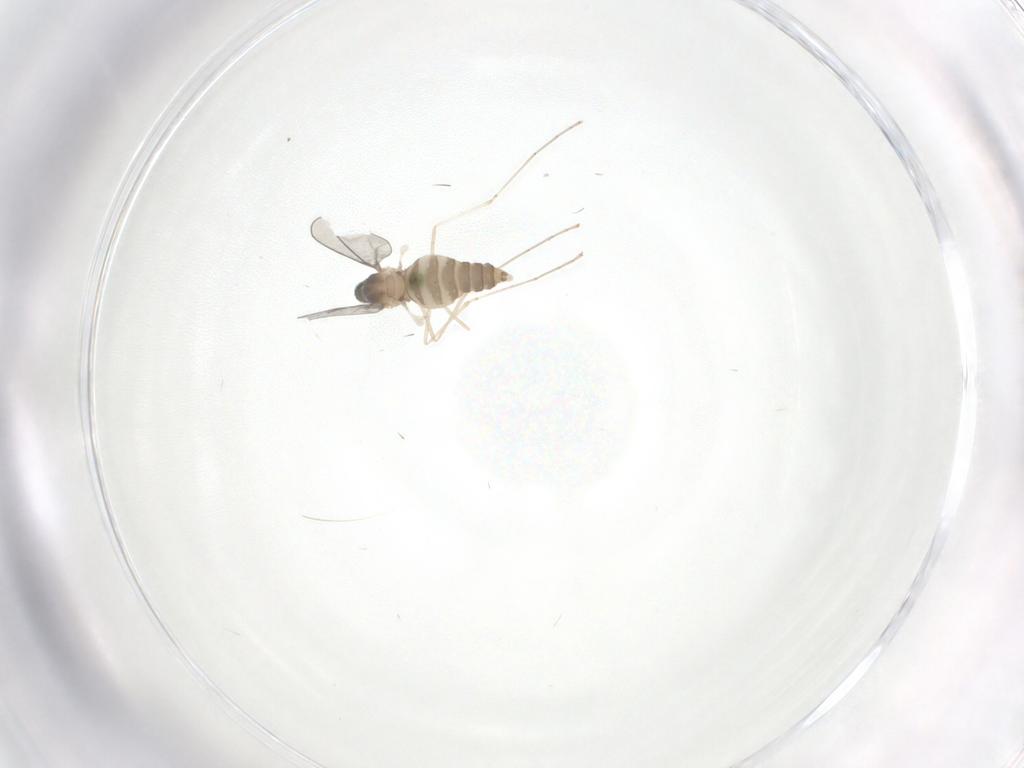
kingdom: Animalia
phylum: Arthropoda
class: Insecta
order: Diptera
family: Cecidomyiidae
